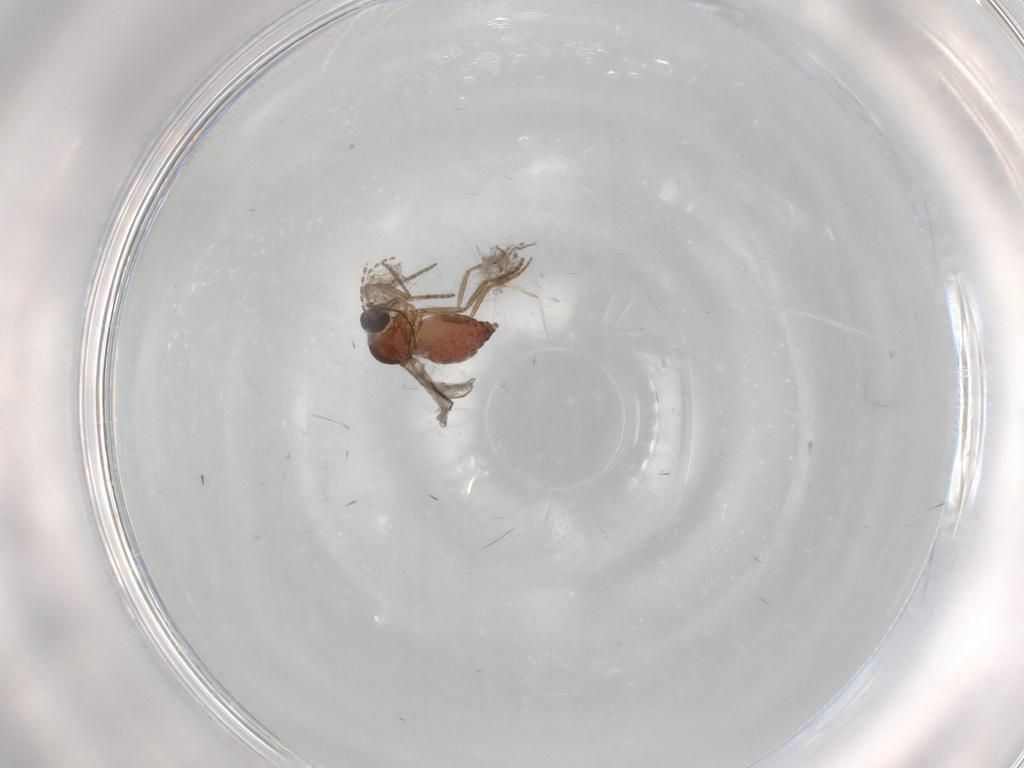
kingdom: Animalia
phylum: Arthropoda
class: Insecta
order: Diptera
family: Ceratopogonidae
